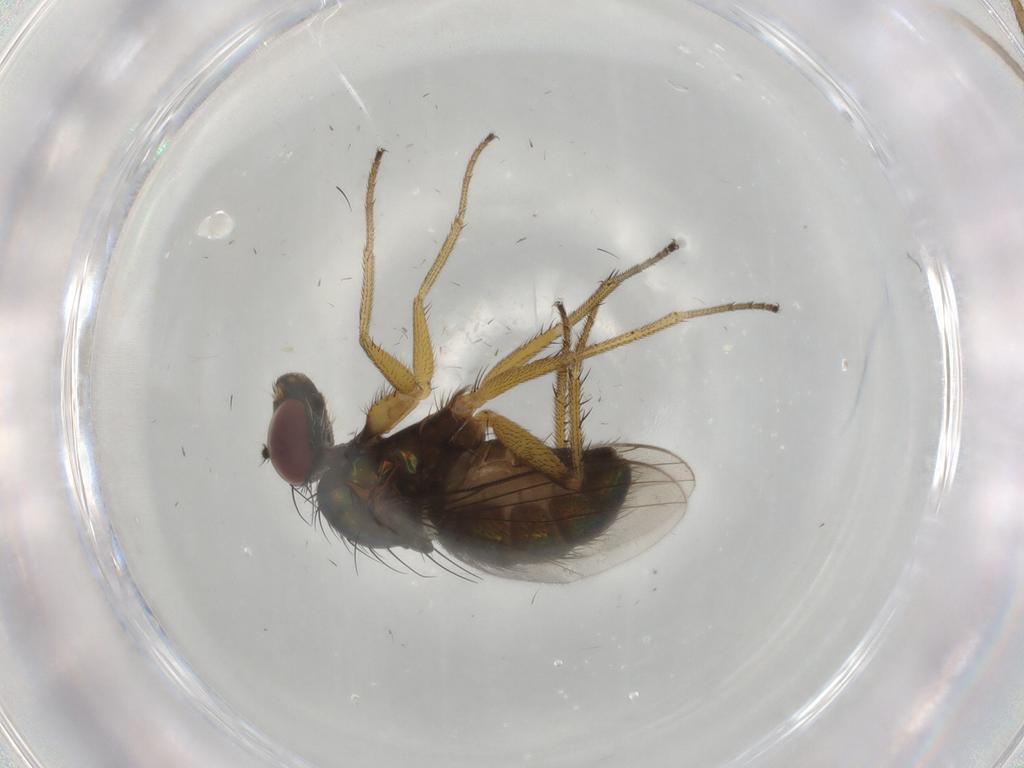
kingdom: Animalia
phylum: Arthropoda
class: Insecta
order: Diptera
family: Dolichopodidae
